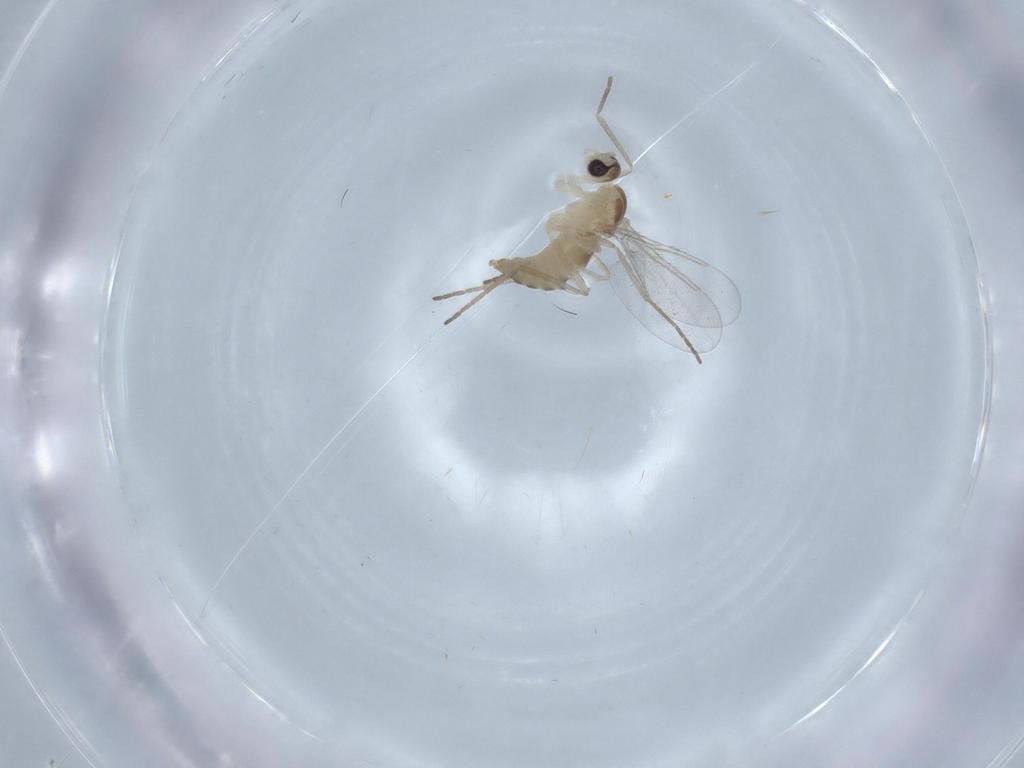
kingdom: Animalia
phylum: Arthropoda
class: Insecta
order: Diptera
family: Cecidomyiidae
